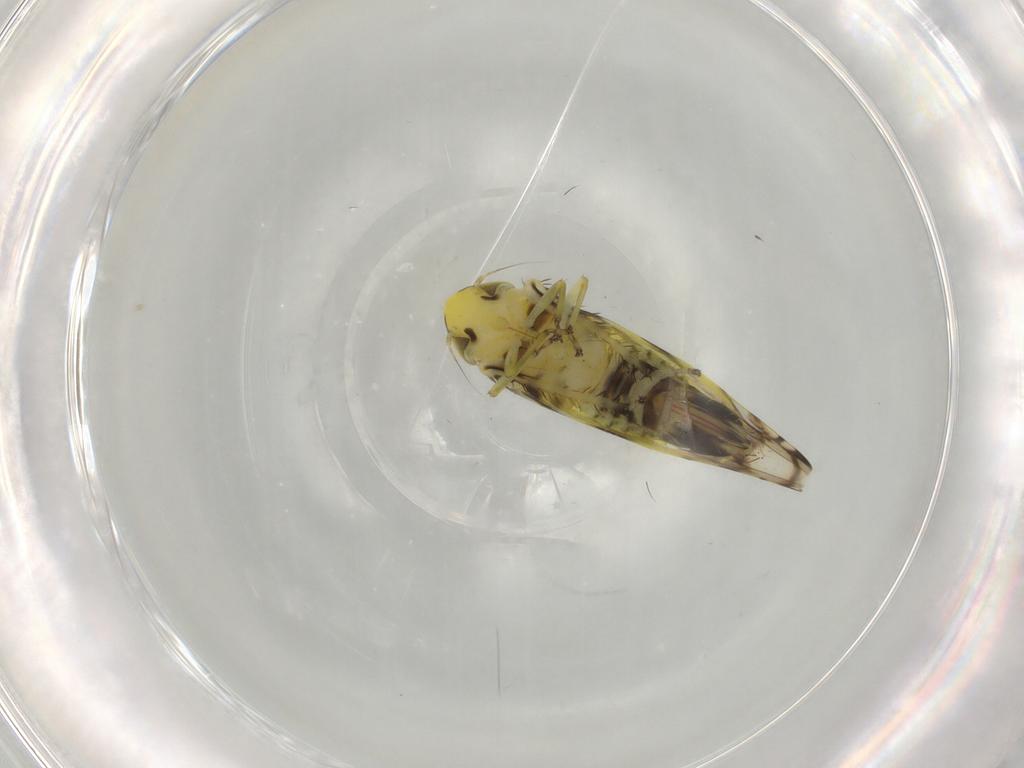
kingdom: Animalia
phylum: Arthropoda
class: Insecta
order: Hemiptera
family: Cicadellidae
